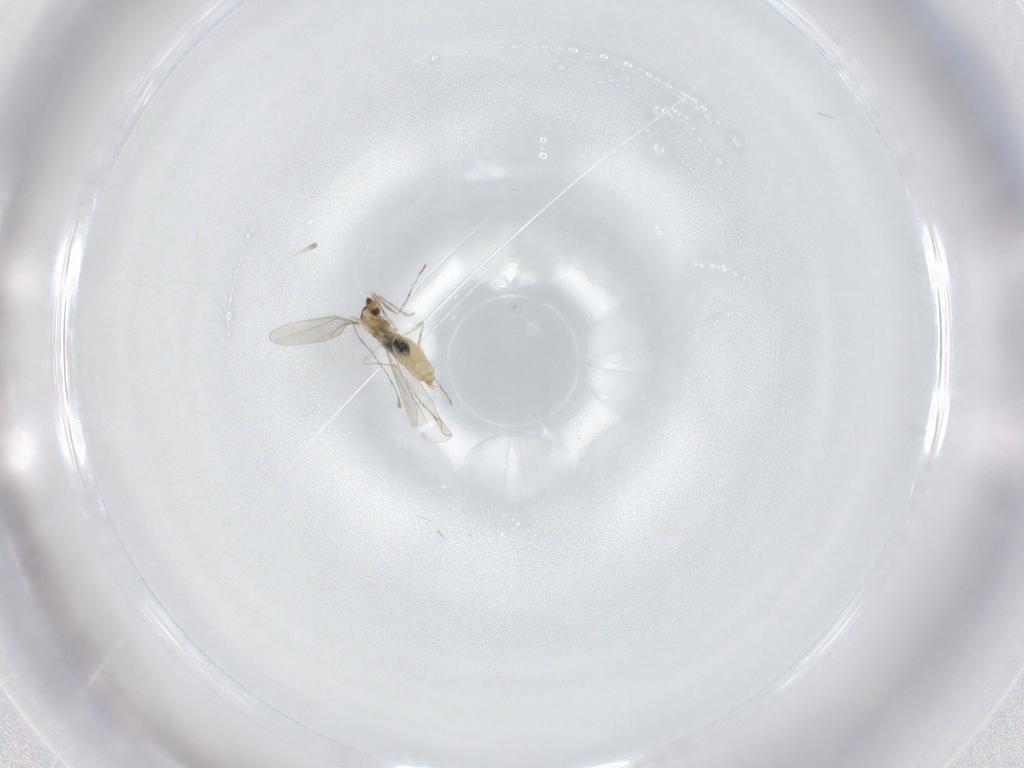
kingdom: Animalia
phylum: Arthropoda
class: Insecta
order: Diptera
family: Cecidomyiidae
